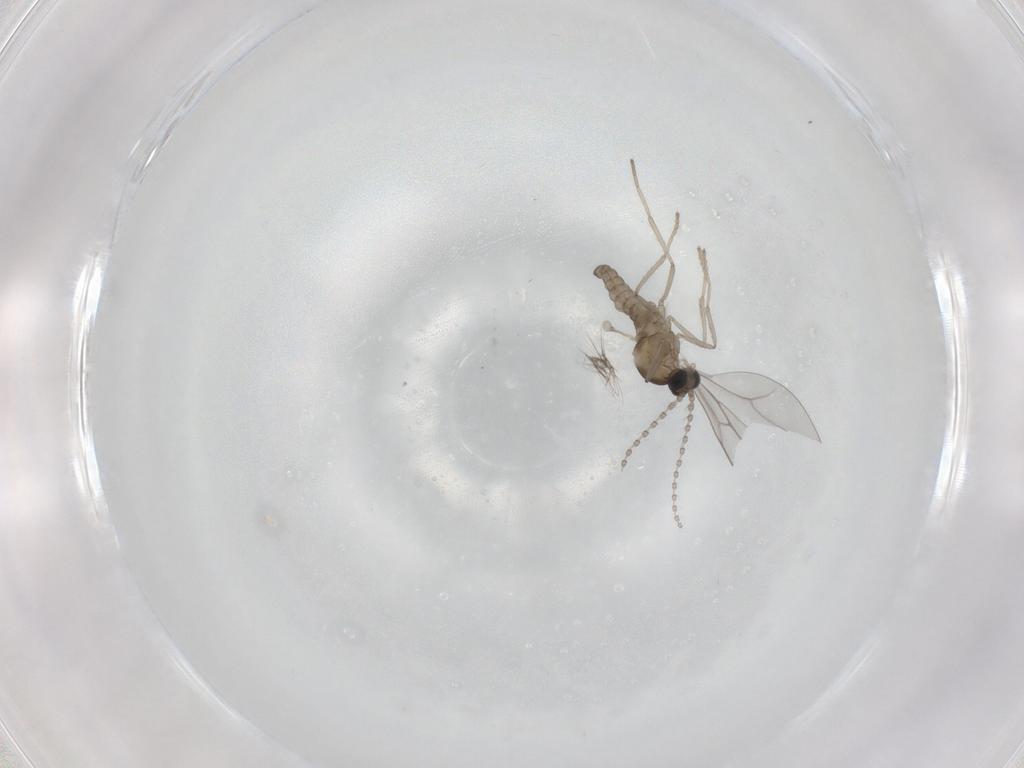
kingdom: Animalia
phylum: Arthropoda
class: Insecta
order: Diptera
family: Cecidomyiidae
